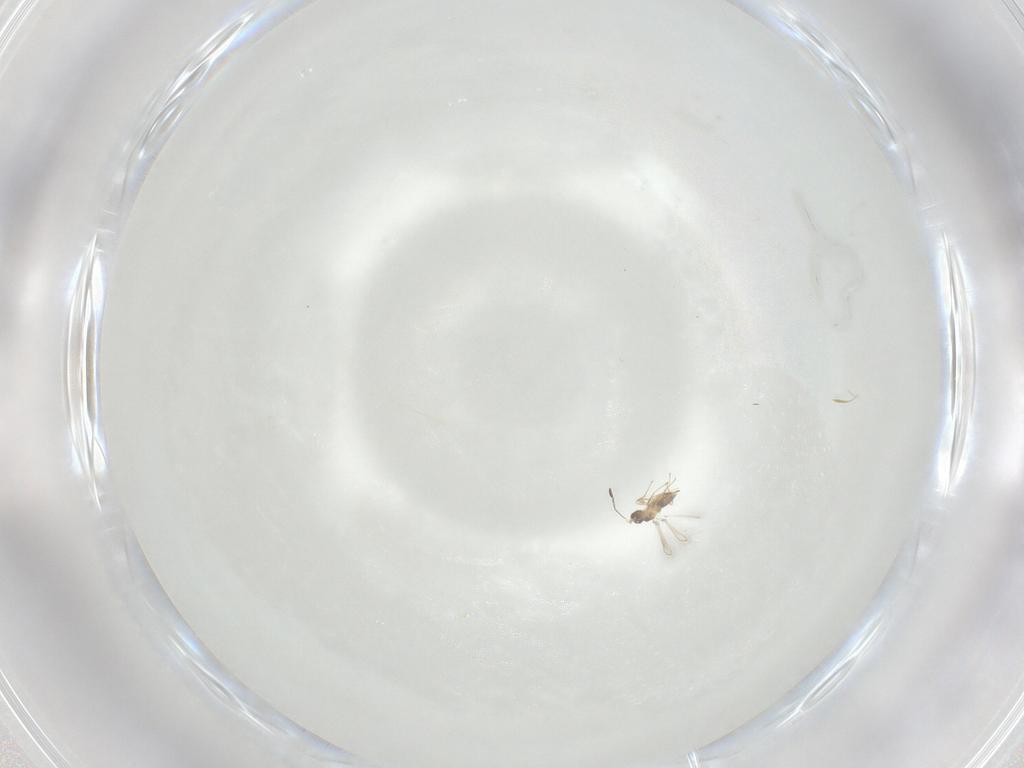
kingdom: Animalia
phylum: Arthropoda
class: Insecta
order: Hymenoptera
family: Mymaridae
